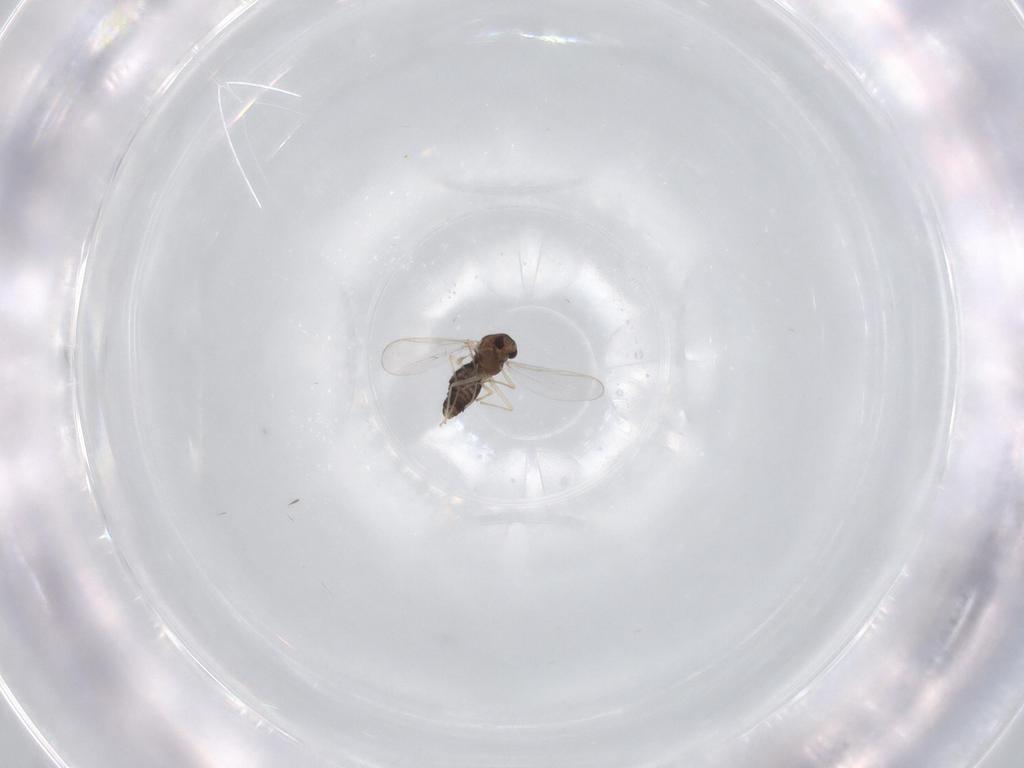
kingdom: Animalia
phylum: Arthropoda
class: Insecta
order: Diptera
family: Chironomidae
